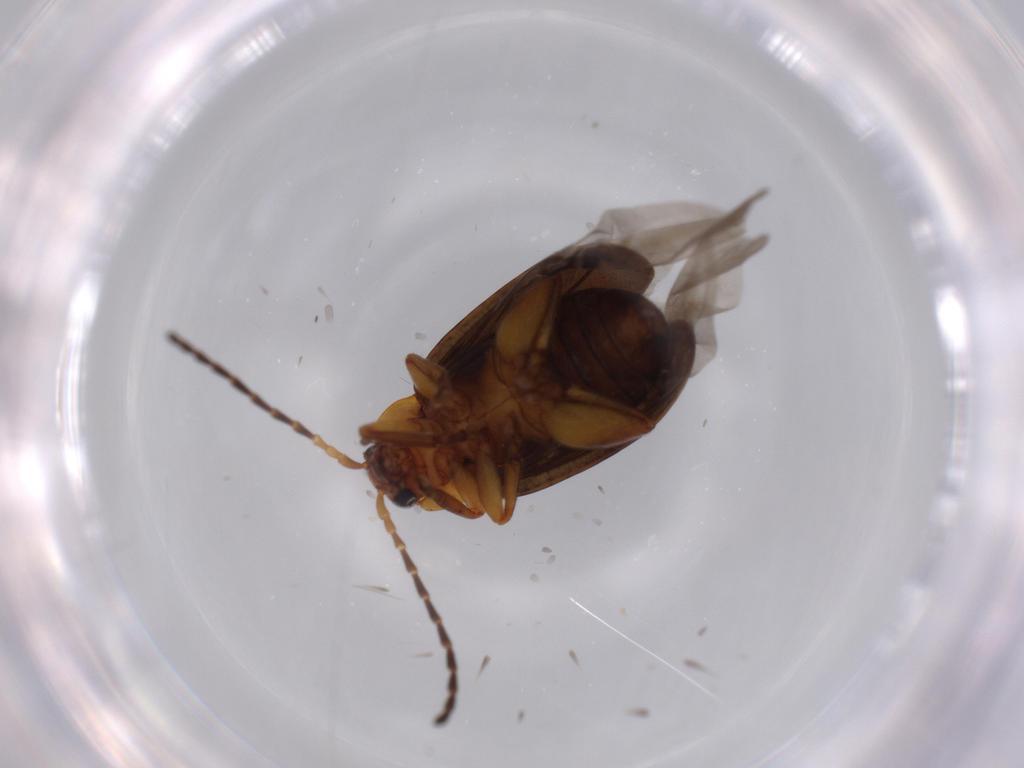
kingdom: Animalia
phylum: Arthropoda
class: Insecta
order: Coleoptera
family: Chrysomelidae
